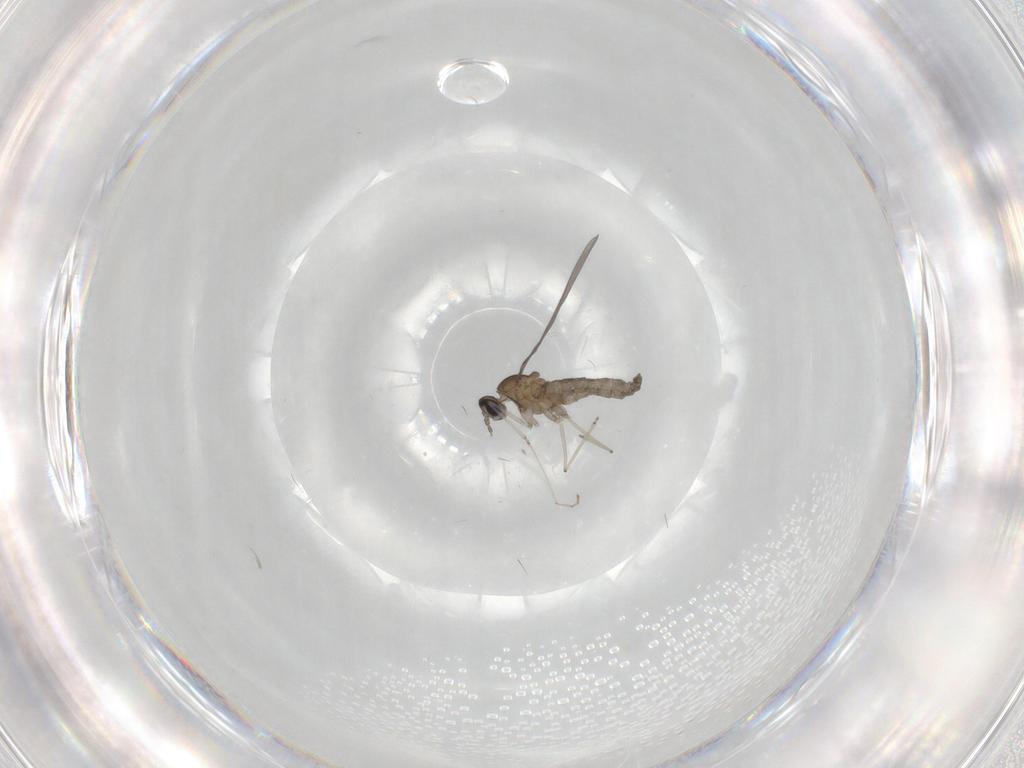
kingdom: Animalia
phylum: Arthropoda
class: Insecta
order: Diptera
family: Cecidomyiidae
